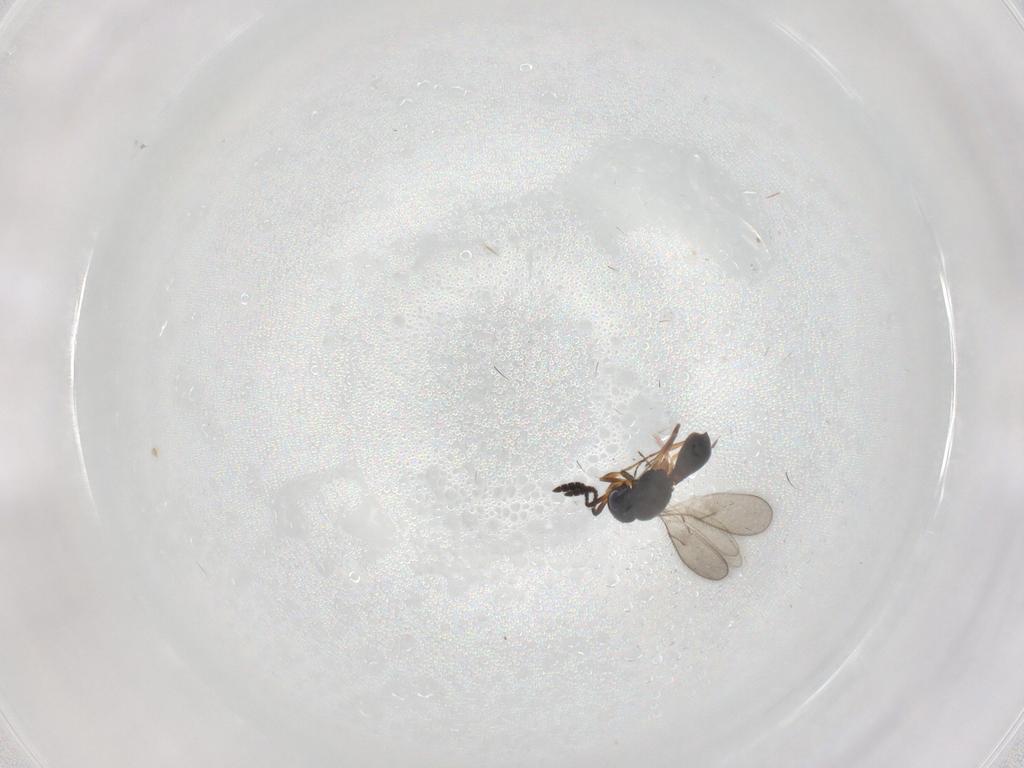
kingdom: Animalia
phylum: Arthropoda
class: Insecta
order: Hymenoptera
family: Scelionidae
